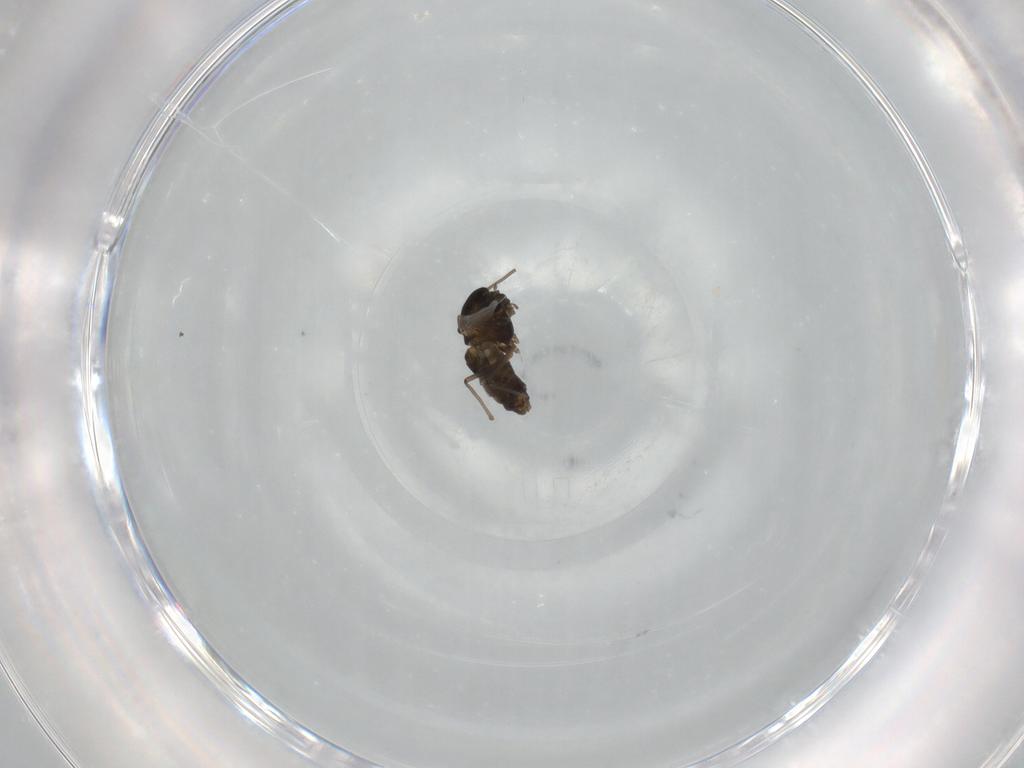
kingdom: Animalia
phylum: Arthropoda
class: Insecta
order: Diptera
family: Chironomidae
